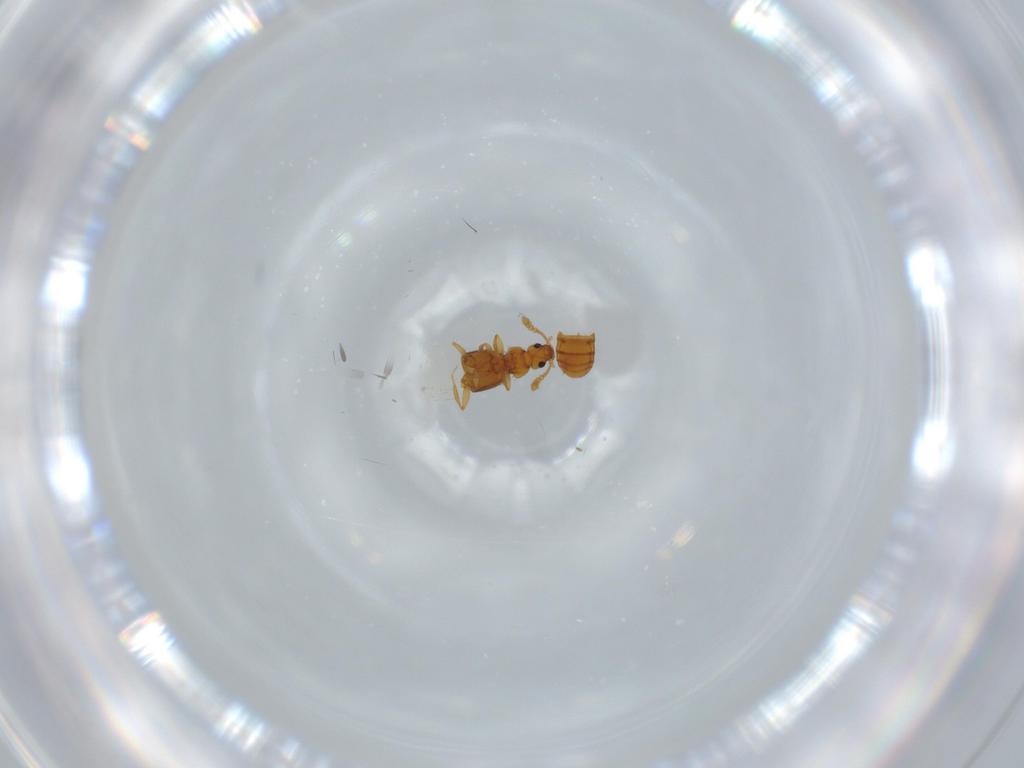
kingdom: Animalia
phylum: Arthropoda
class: Insecta
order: Coleoptera
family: Staphylinidae
